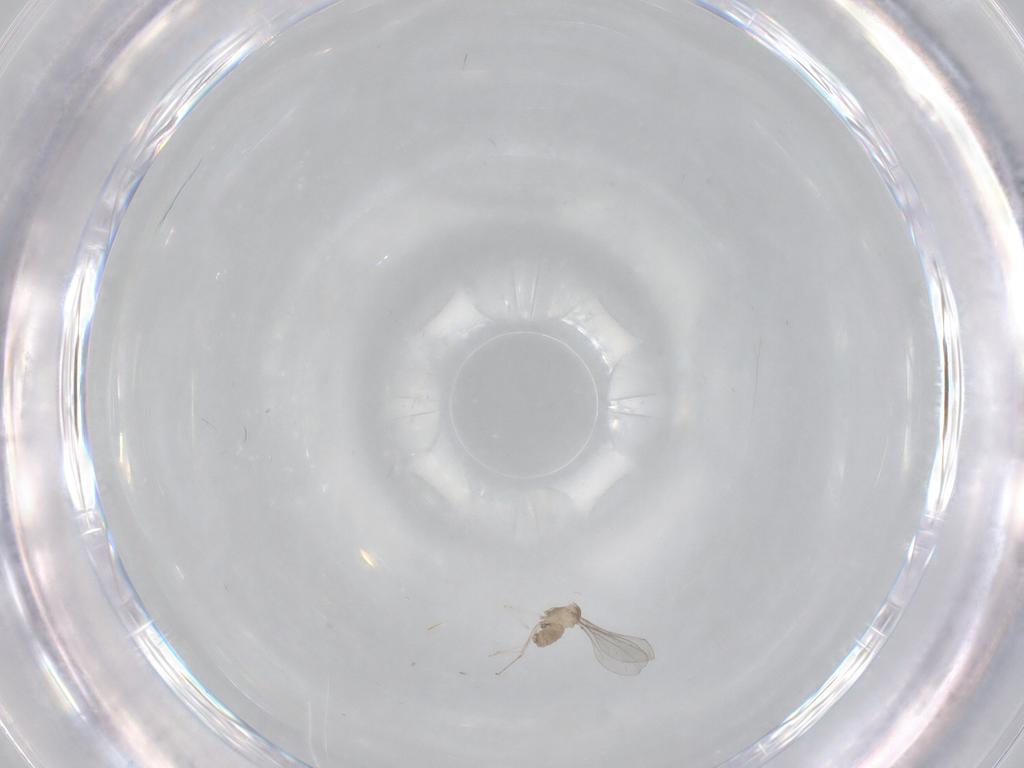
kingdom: Animalia
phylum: Arthropoda
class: Insecta
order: Diptera
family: Cecidomyiidae
